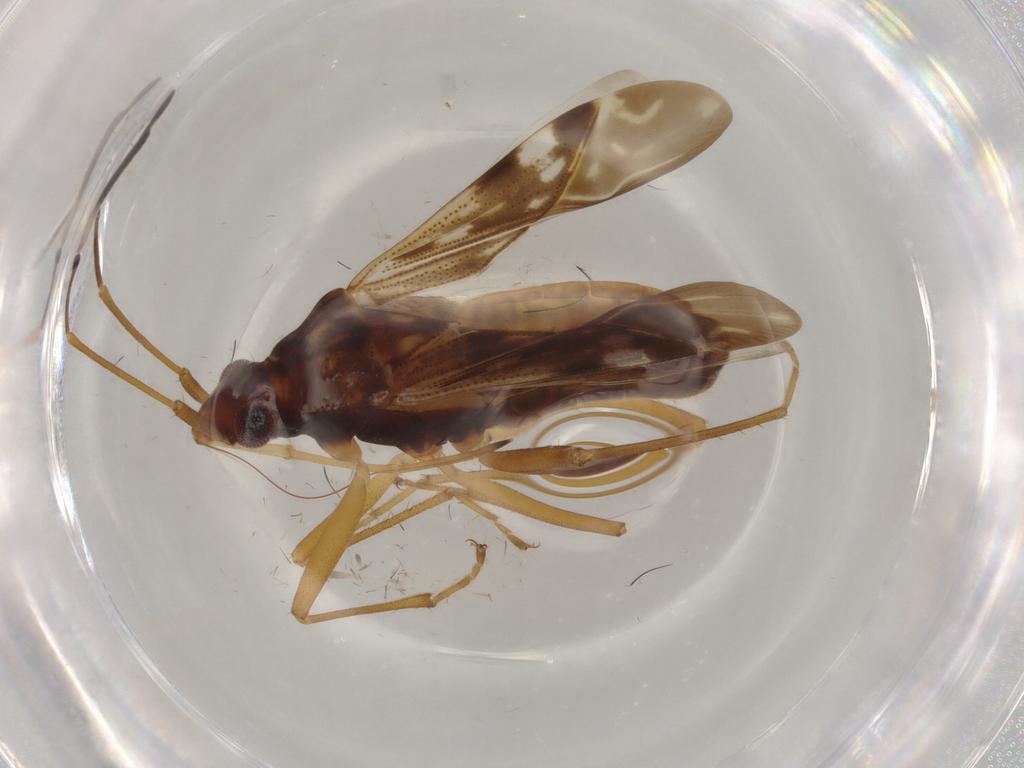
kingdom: Animalia
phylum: Arthropoda
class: Insecta
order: Hemiptera
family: Rhyparochromidae
